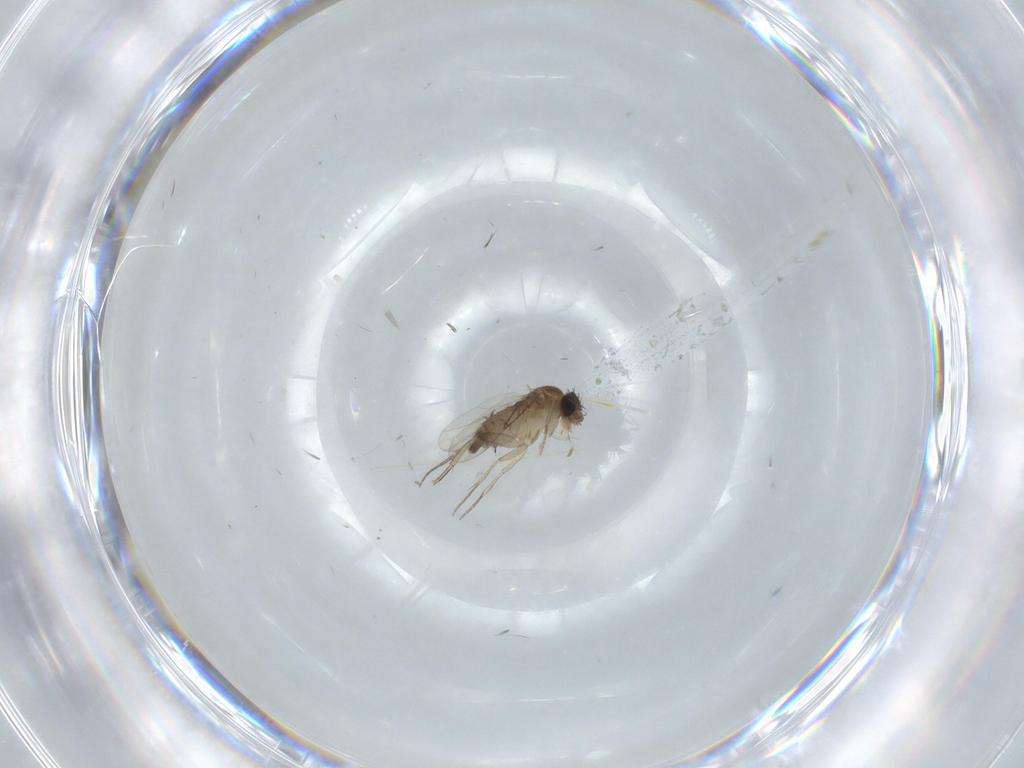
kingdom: Animalia
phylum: Arthropoda
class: Insecta
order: Diptera
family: Phoridae
